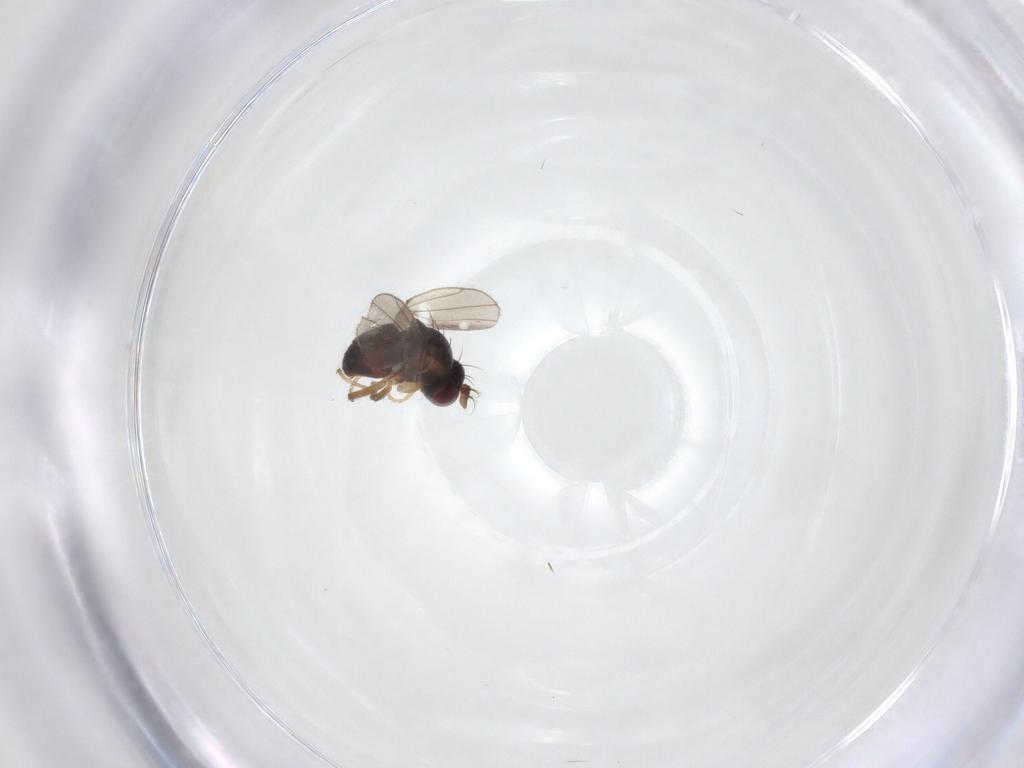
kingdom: Animalia
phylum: Arthropoda
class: Insecta
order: Diptera
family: Ephydridae
